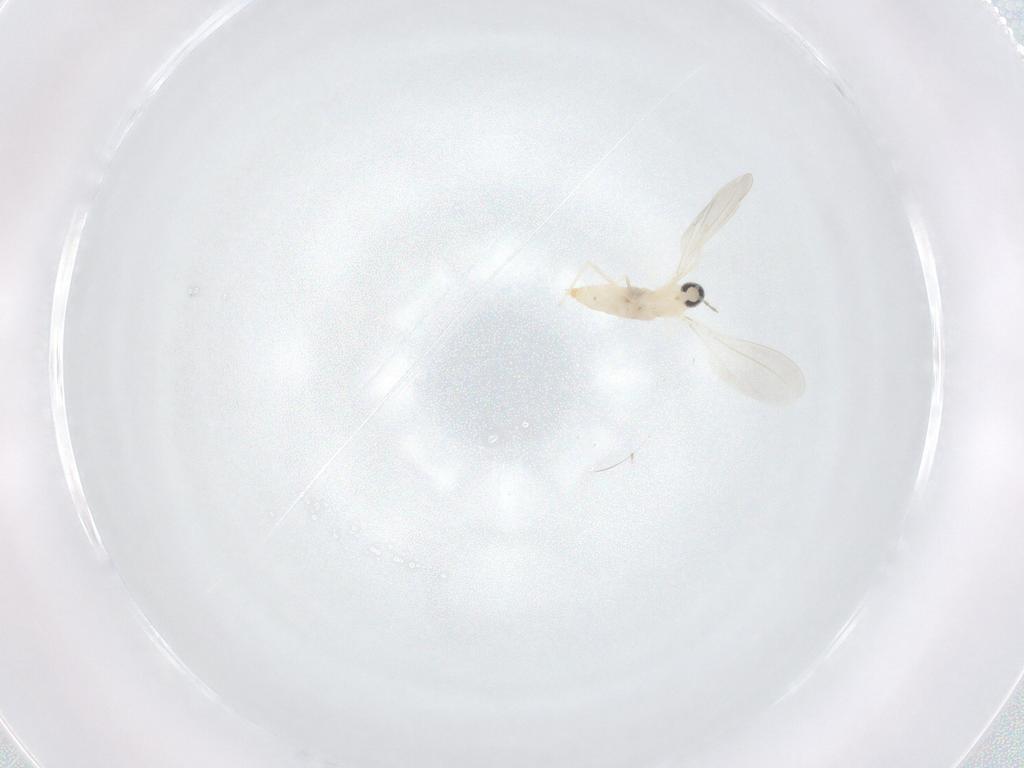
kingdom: Animalia
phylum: Arthropoda
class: Insecta
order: Diptera
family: Cecidomyiidae
